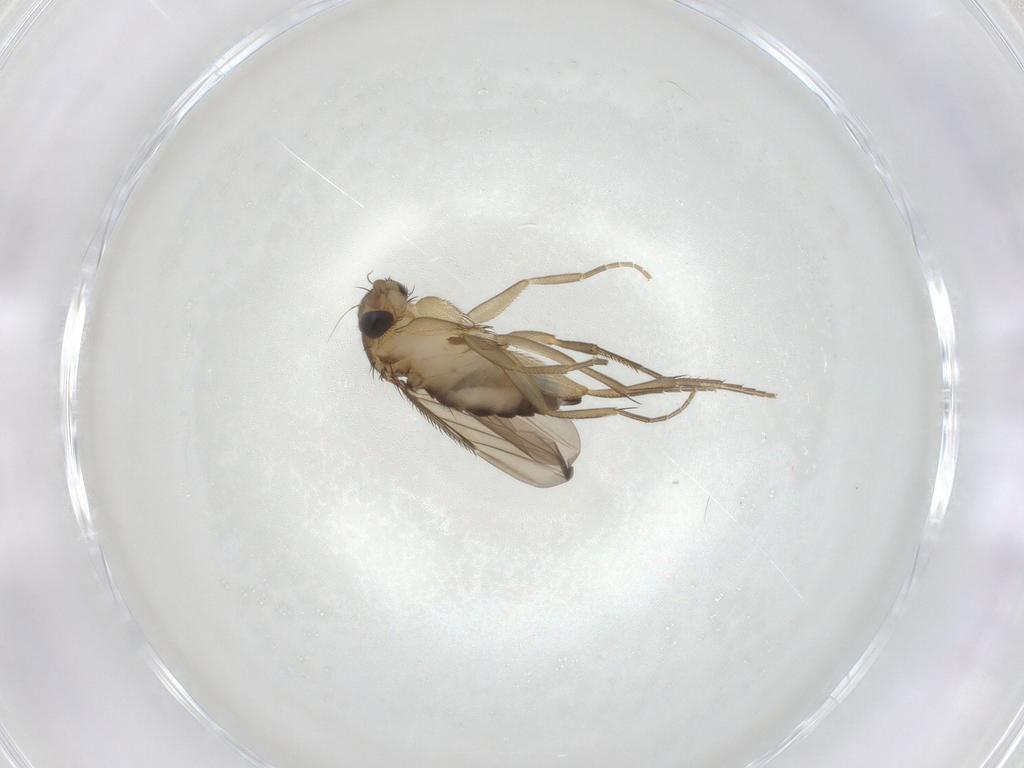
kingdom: Animalia
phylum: Arthropoda
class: Insecta
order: Diptera
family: Phoridae
